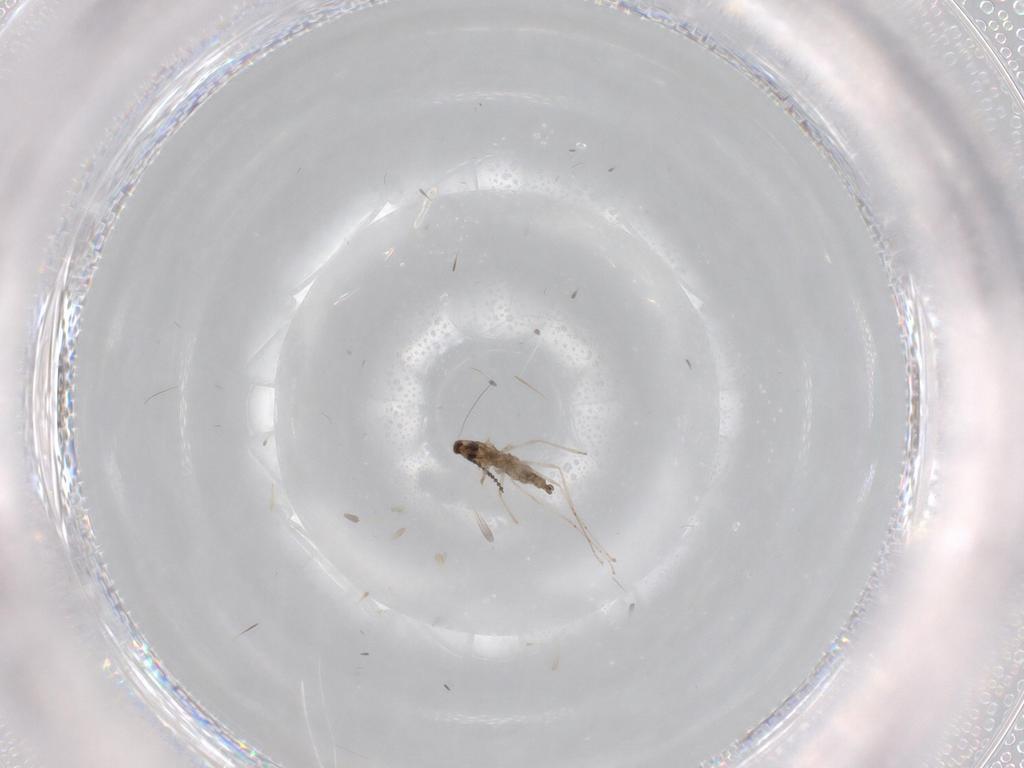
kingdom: Animalia
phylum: Arthropoda
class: Insecta
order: Diptera
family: Cecidomyiidae
